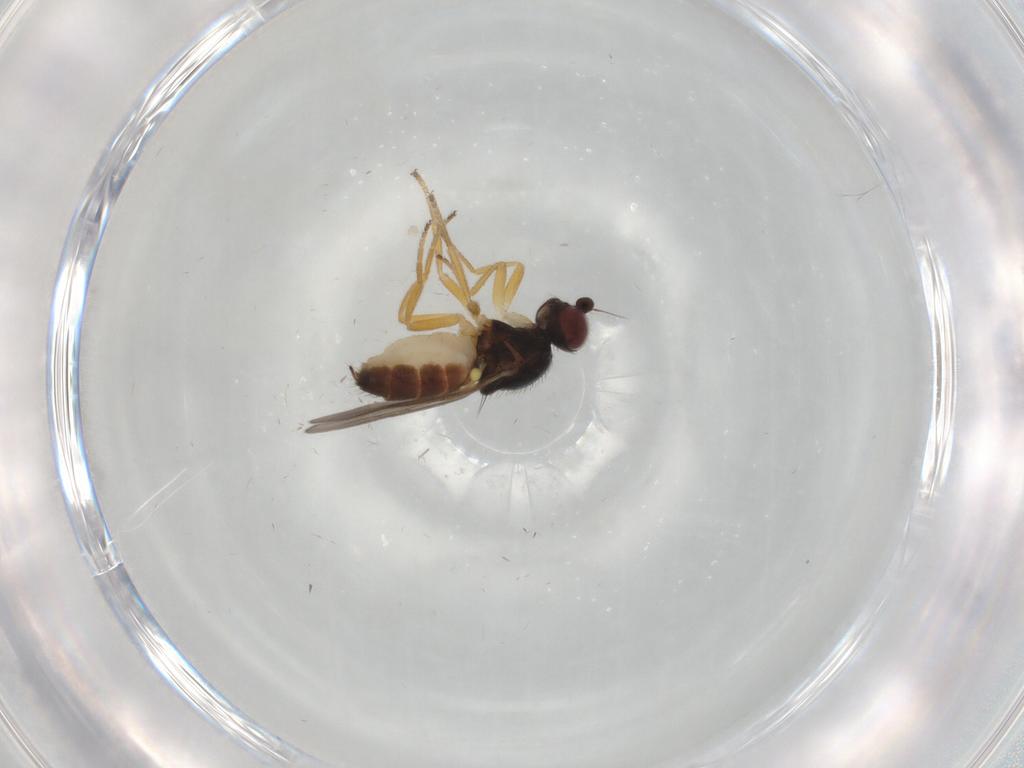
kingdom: Animalia
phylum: Arthropoda
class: Insecta
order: Diptera
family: Chloropidae
